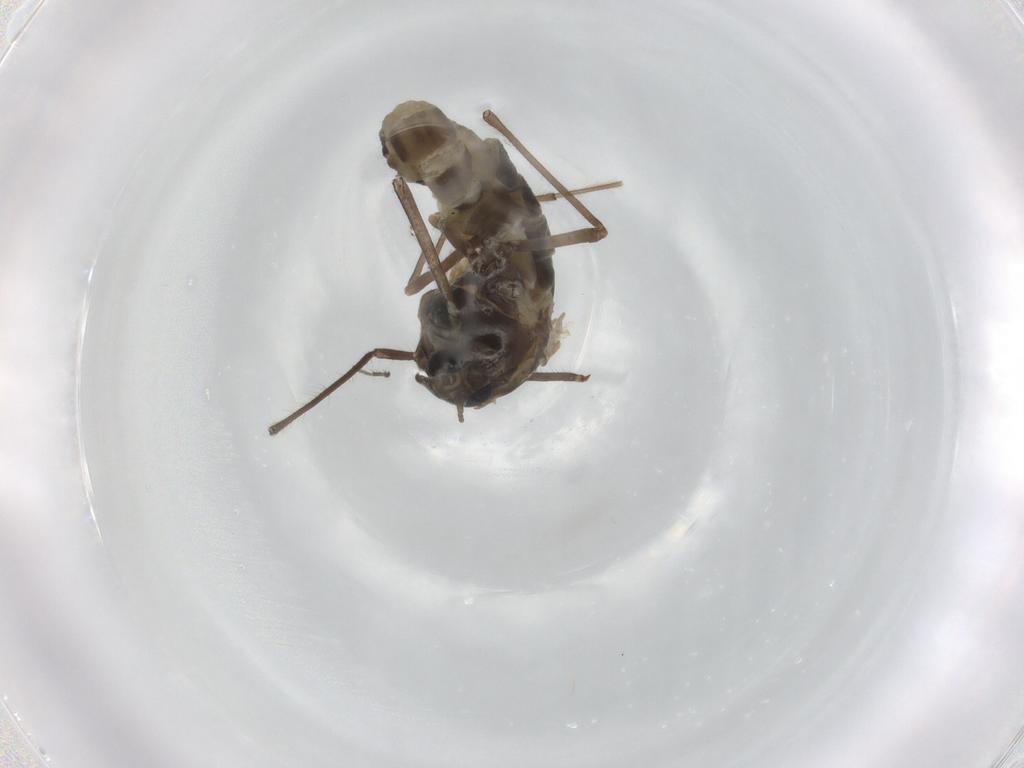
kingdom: Animalia
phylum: Arthropoda
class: Insecta
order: Diptera
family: Chironomidae
